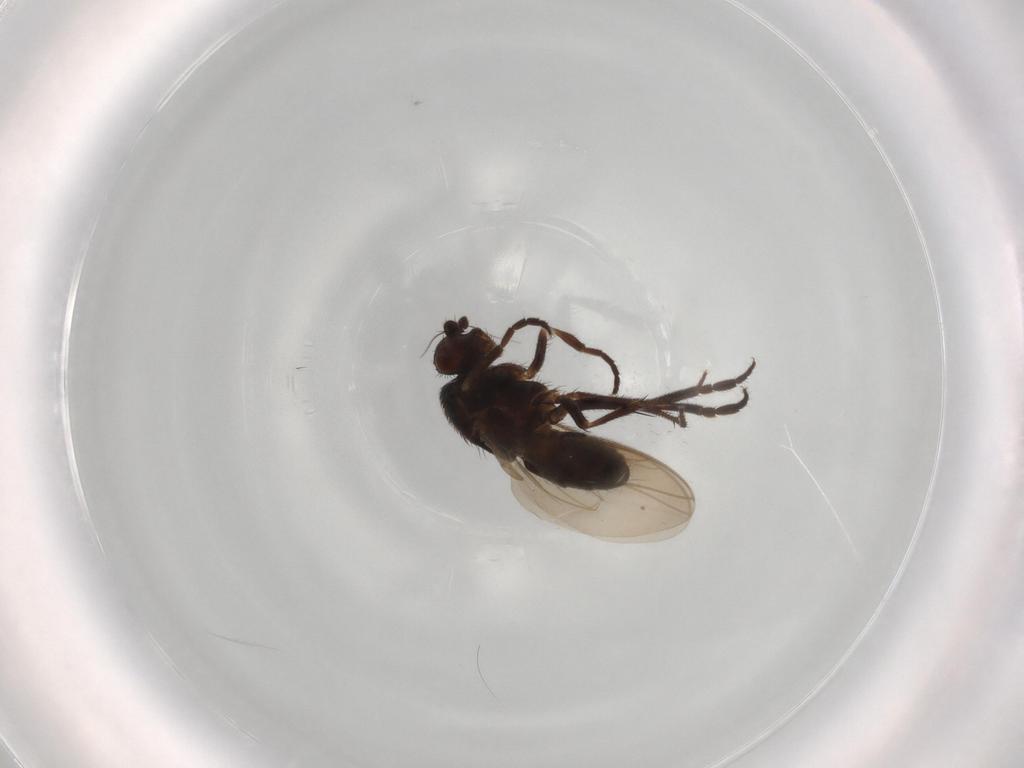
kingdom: Animalia
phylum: Arthropoda
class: Insecta
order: Diptera
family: Sphaeroceridae
